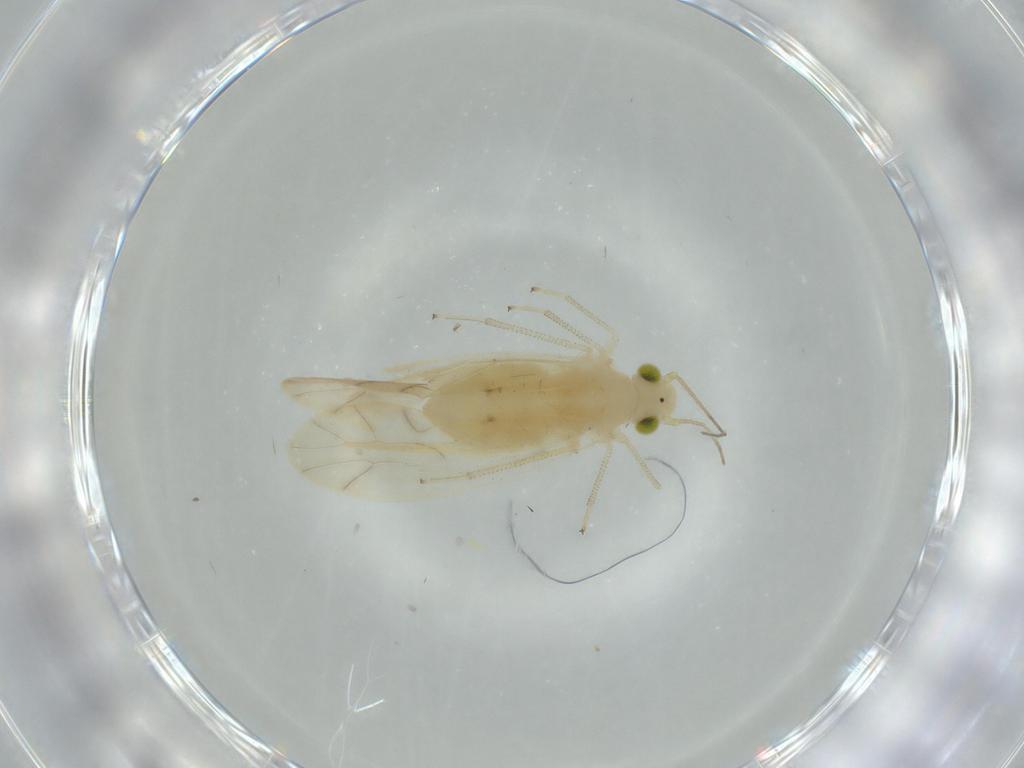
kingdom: Animalia
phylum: Arthropoda
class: Insecta
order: Psocodea
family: Caeciliusidae
